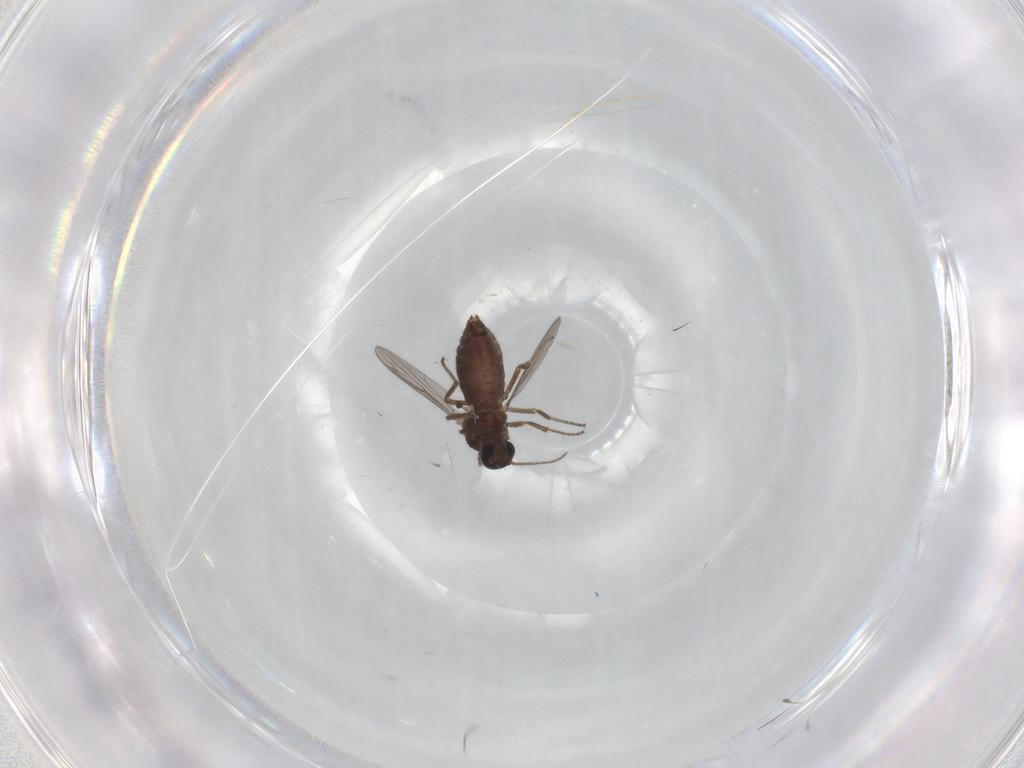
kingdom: Animalia
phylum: Arthropoda
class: Insecta
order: Diptera
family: Ceratopogonidae
